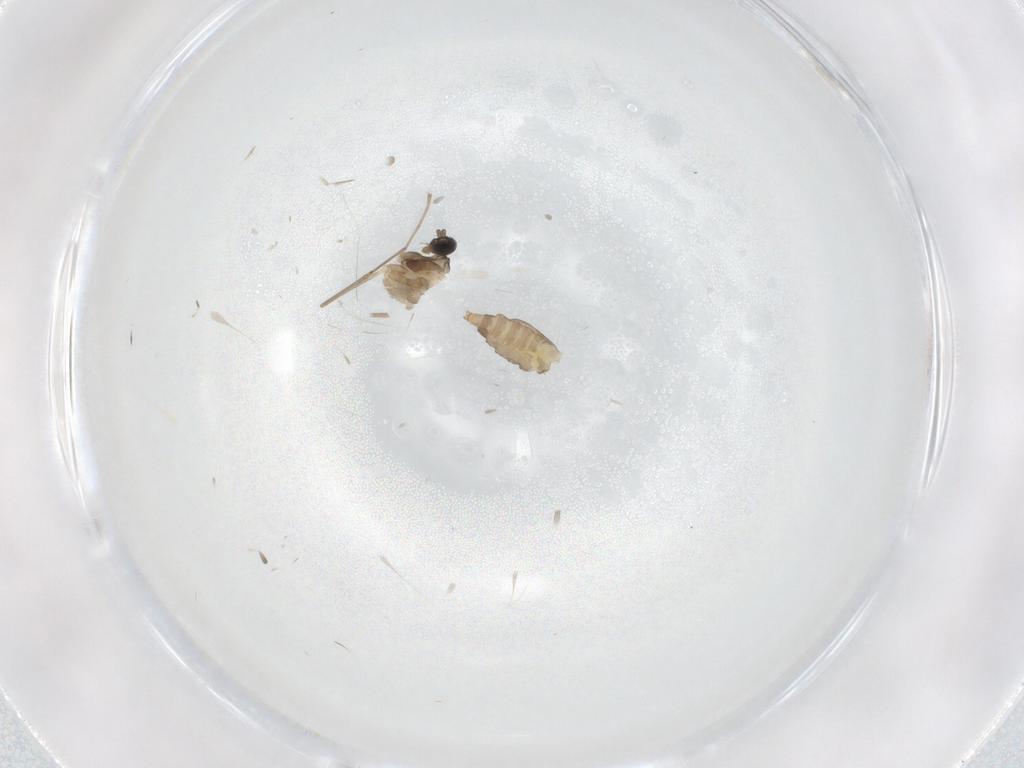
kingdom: Animalia
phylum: Arthropoda
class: Insecta
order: Diptera
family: Cecidomyiidae
